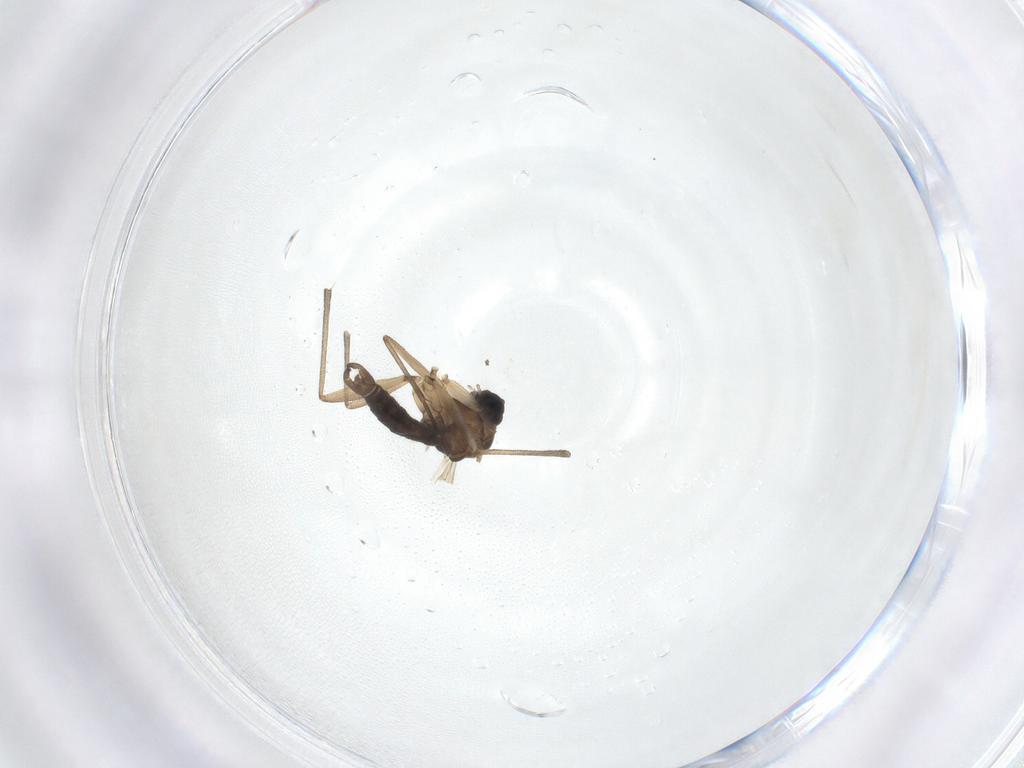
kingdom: Animalia
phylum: Arthropoda
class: Insecta
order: Diptera
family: Sciaridae
